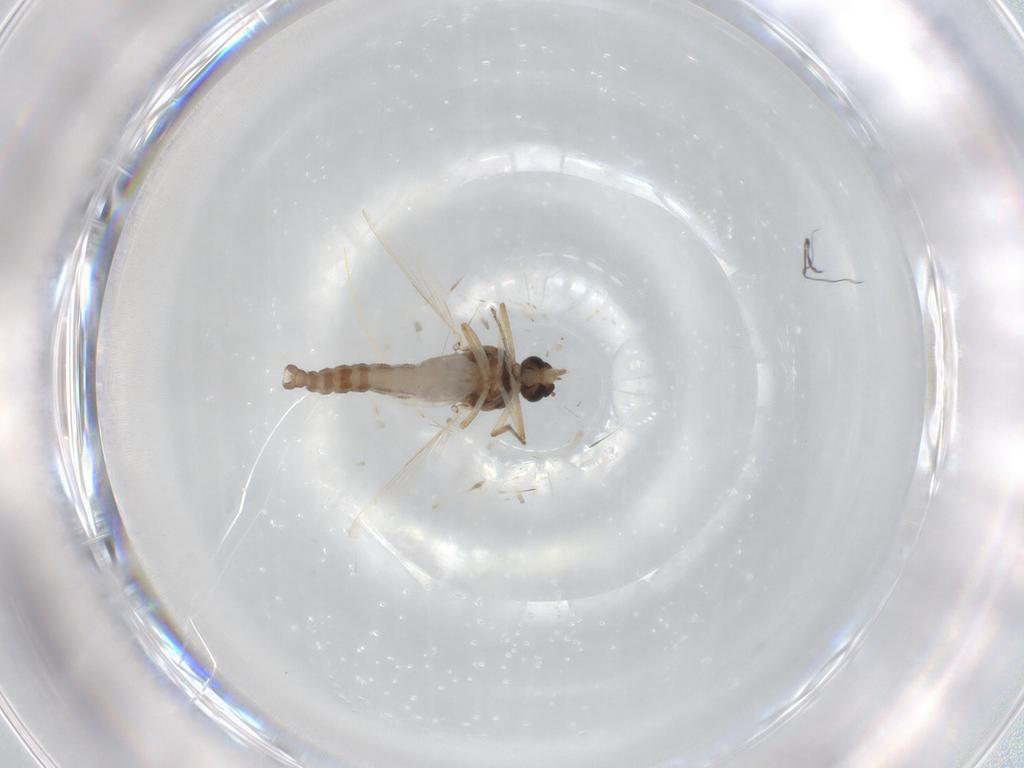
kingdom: Animalia
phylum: Arthropoda
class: Insecta
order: Diptera
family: Ceratopogonidae
